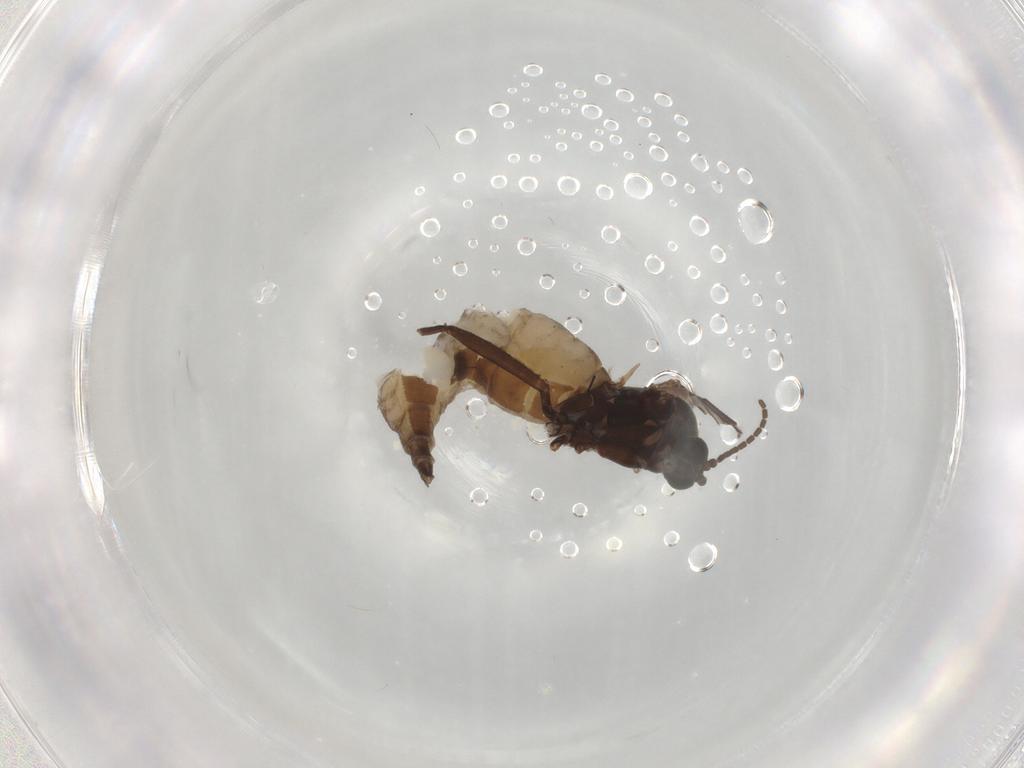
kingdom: Animalia
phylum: Arthropoda
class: Insecta
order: Diptera
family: Sciaridae
